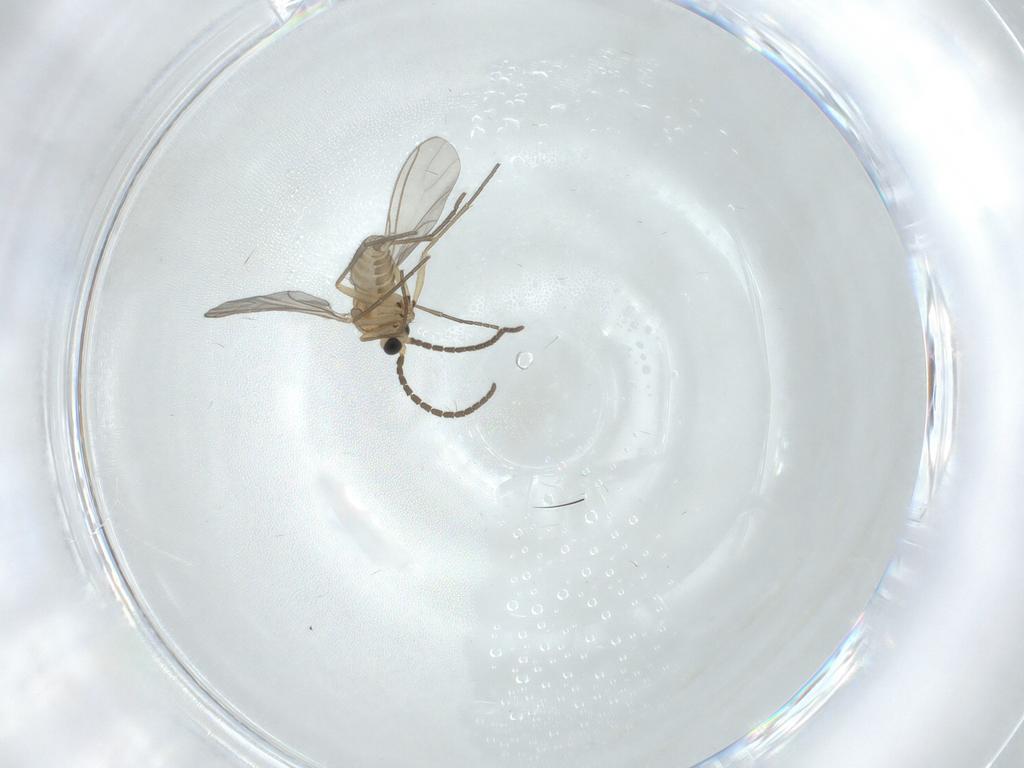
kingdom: Animalia
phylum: Arthropoda
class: Insecta
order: Diptera
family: Sciaridae
